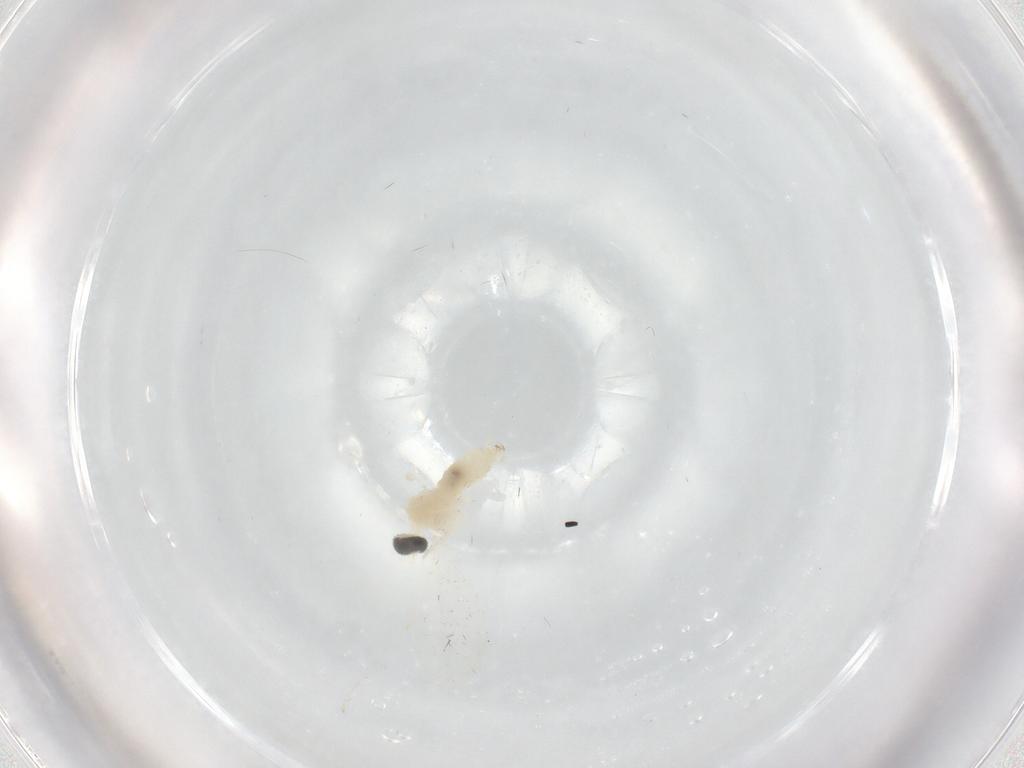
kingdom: Animalia
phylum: Arthropoda
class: Insecta
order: Diptera
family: Cecidomyiidae
